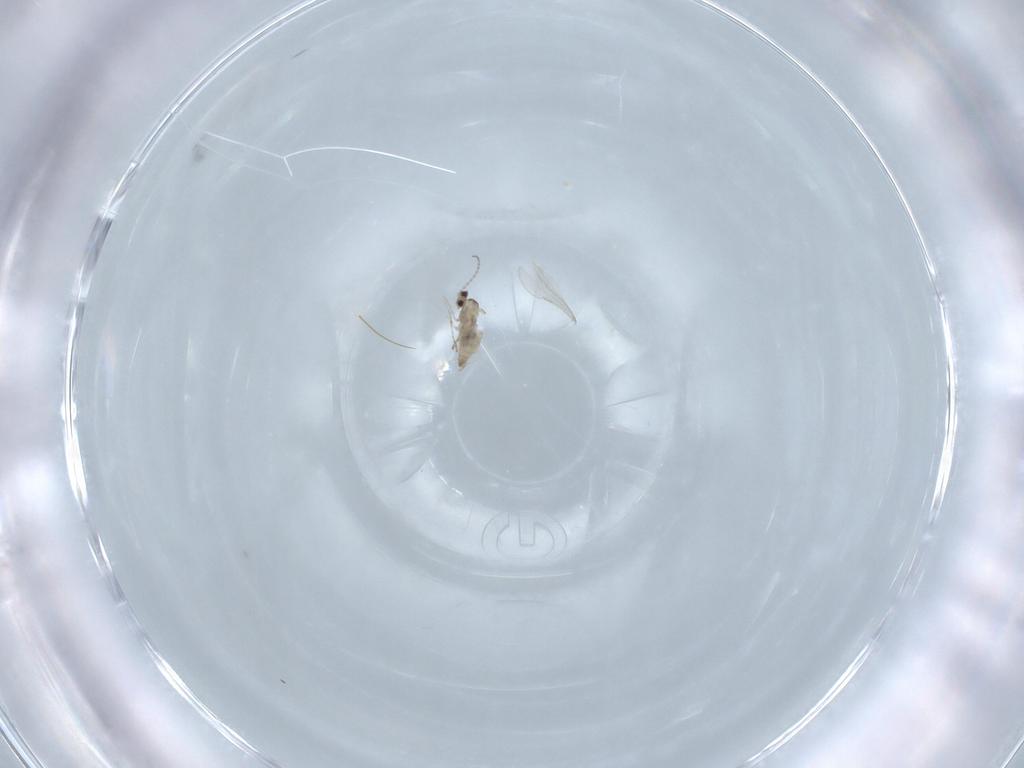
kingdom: Animalia
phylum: Arthropoda
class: Insecta
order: Diptera
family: Cecidomyiidae
